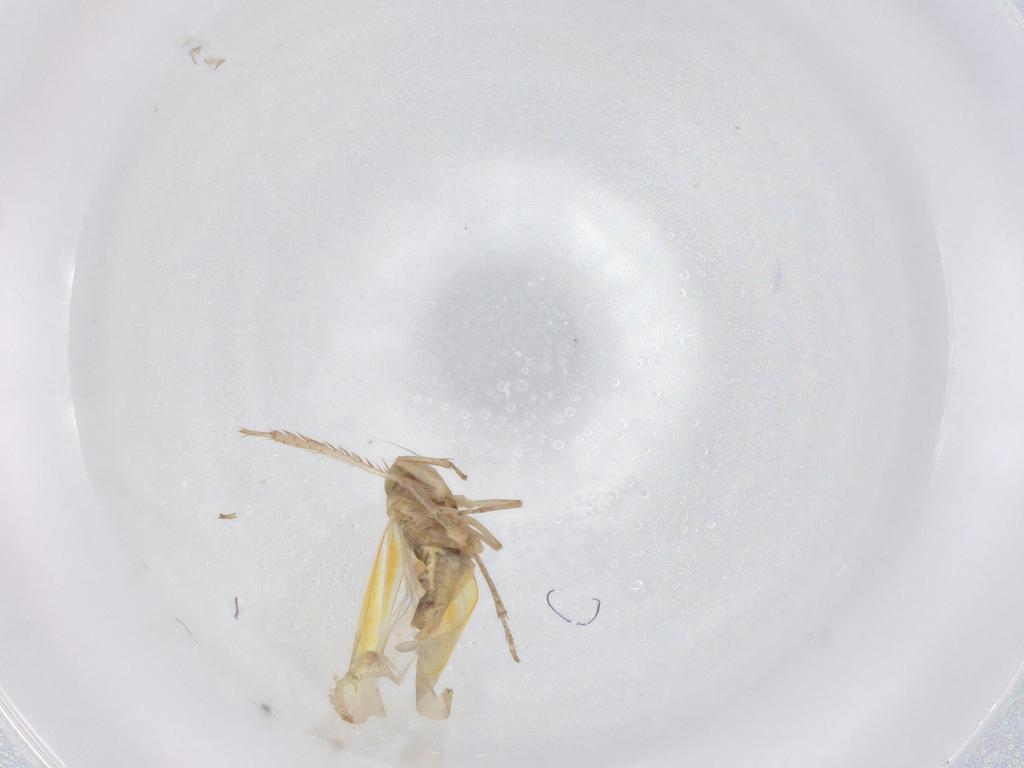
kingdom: Animalia
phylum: Arthropoda
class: Insecta
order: Hemiptera
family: Cicadellidae
